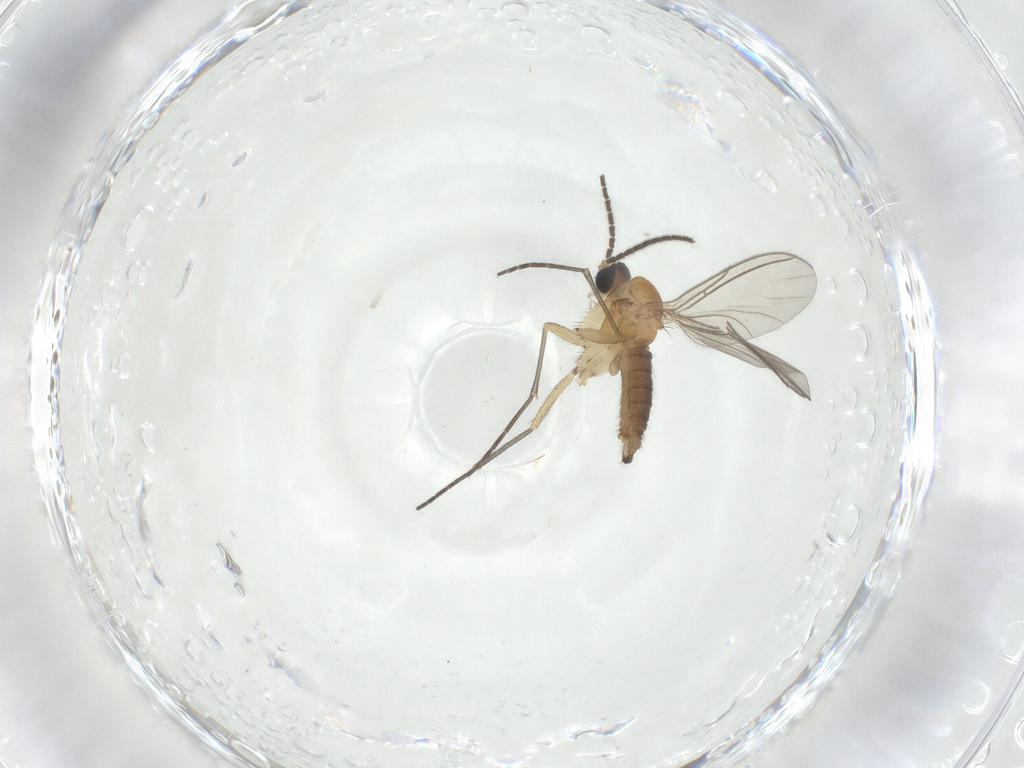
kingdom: Animalia
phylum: Arthropoda
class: Insecta
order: Diptera
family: Sciaridae
